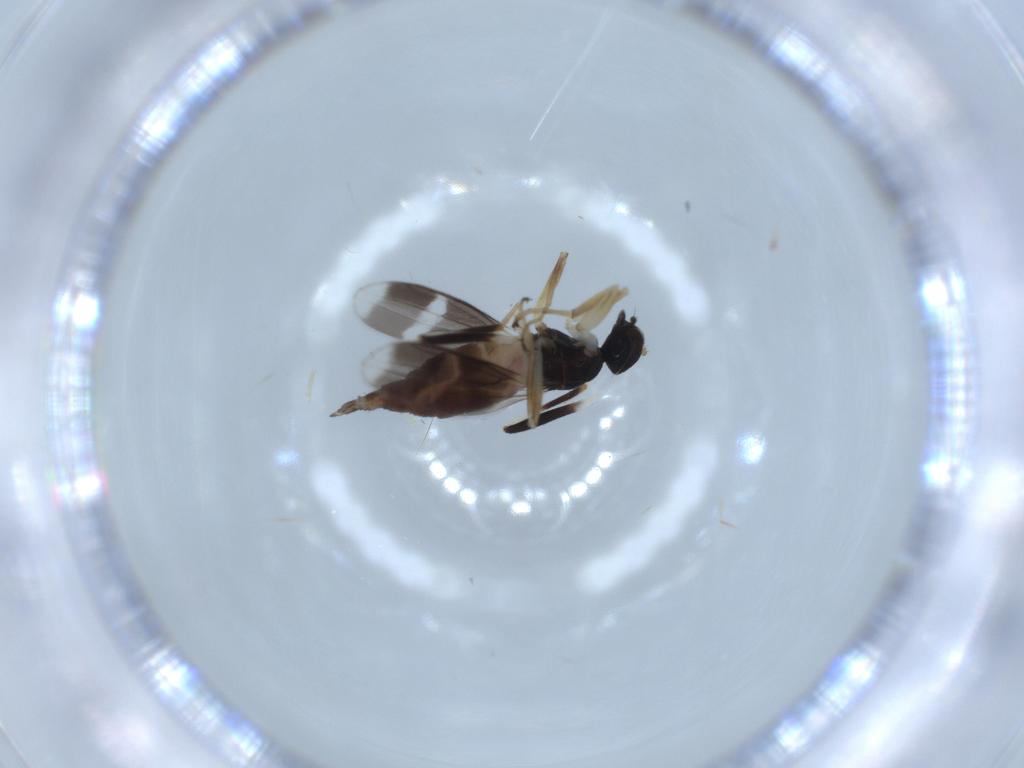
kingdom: Animalia
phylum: Arthropoda
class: Insecta
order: Diptera
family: Hybotidae
